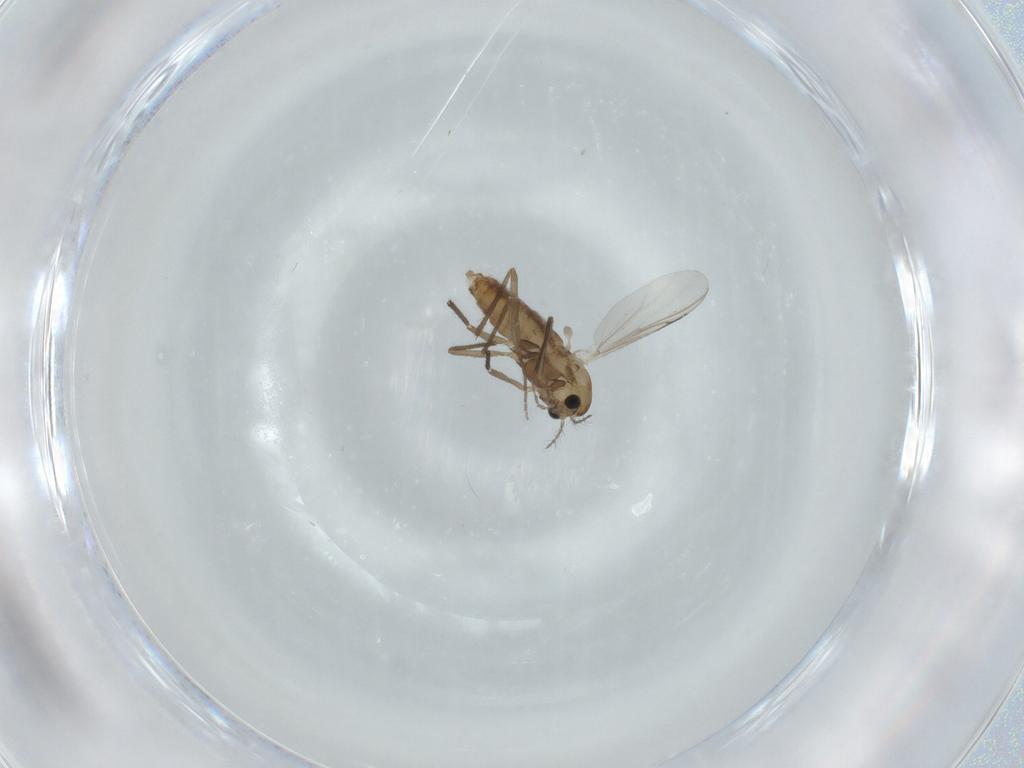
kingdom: Animalia
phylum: Arthropoda
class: Insecta
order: Diptera
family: Chironomidae
